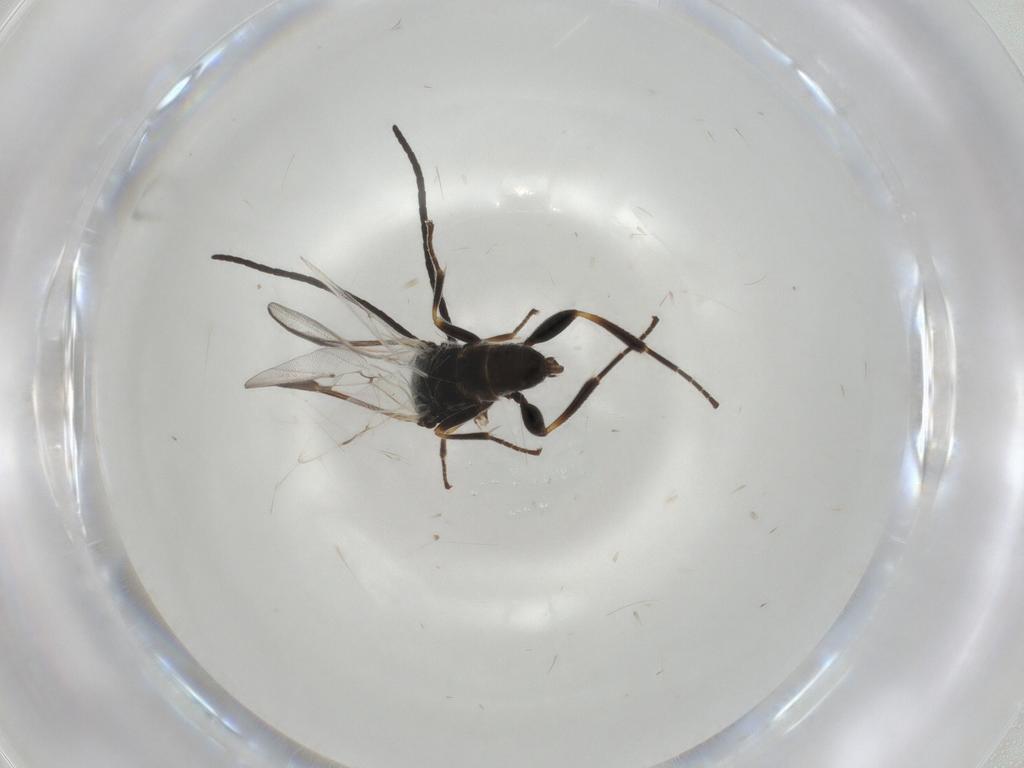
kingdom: Animalia
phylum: Arthropoda
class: Insecta
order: Hymenoptera
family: Braconidae
